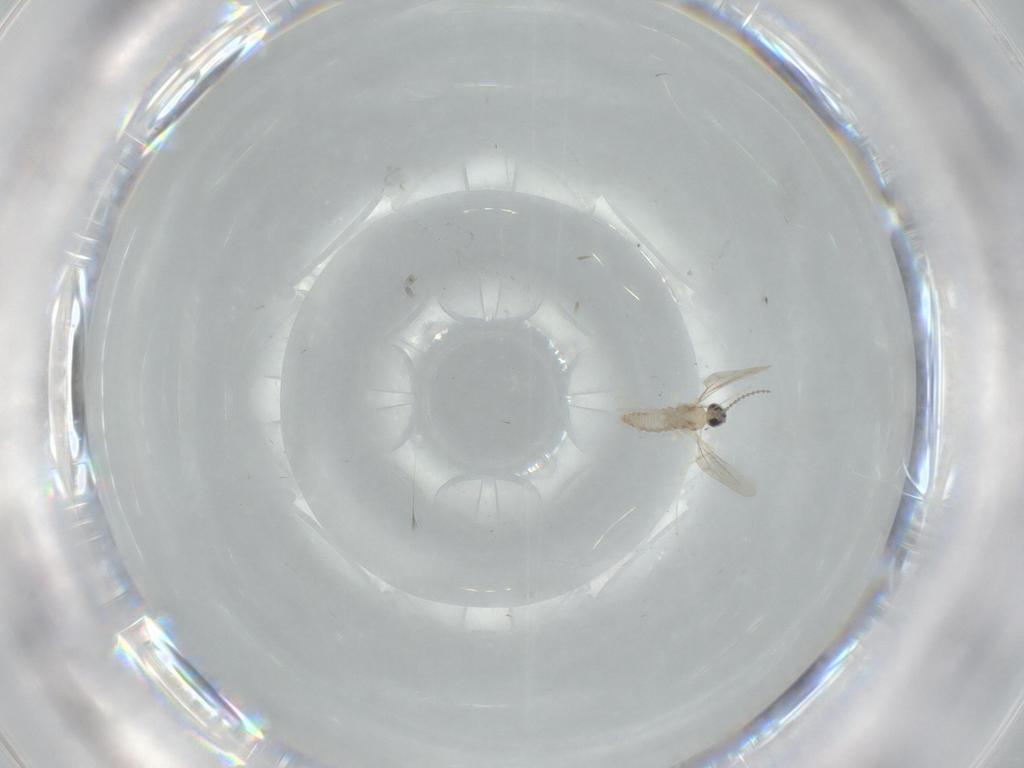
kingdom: Animalia
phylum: Arthropoda
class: Insecta
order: Diptera
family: Cecidomyiidae
